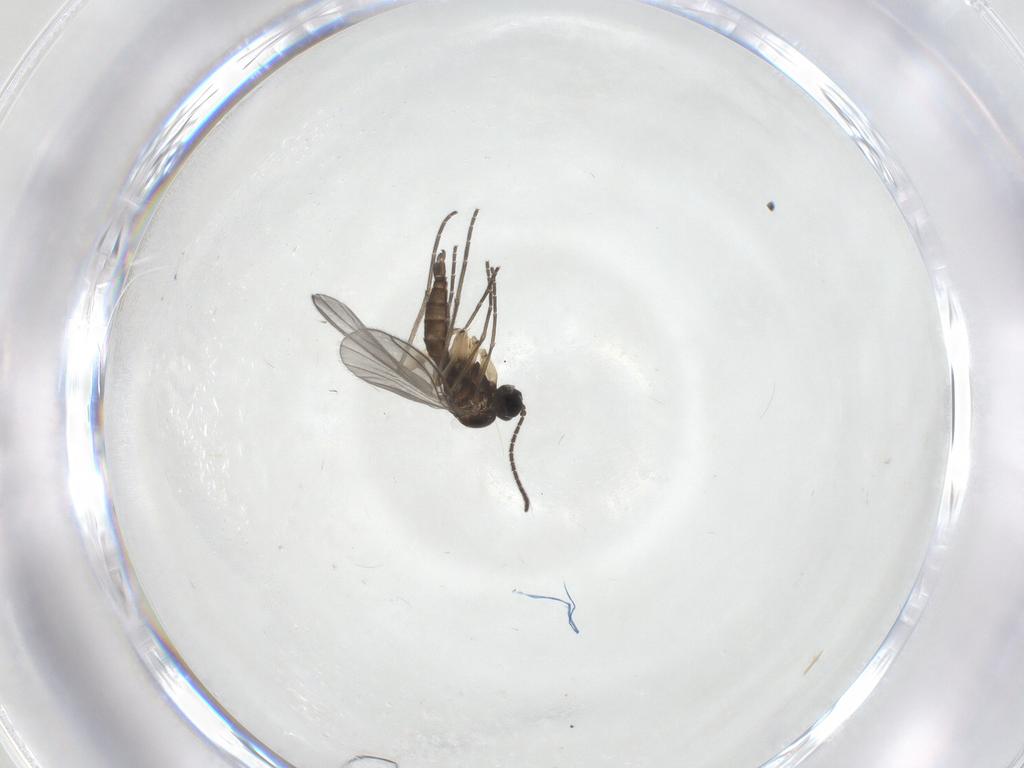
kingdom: Animalia
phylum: Arthropoda
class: Insecta
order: Diptera
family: Sciaridae
